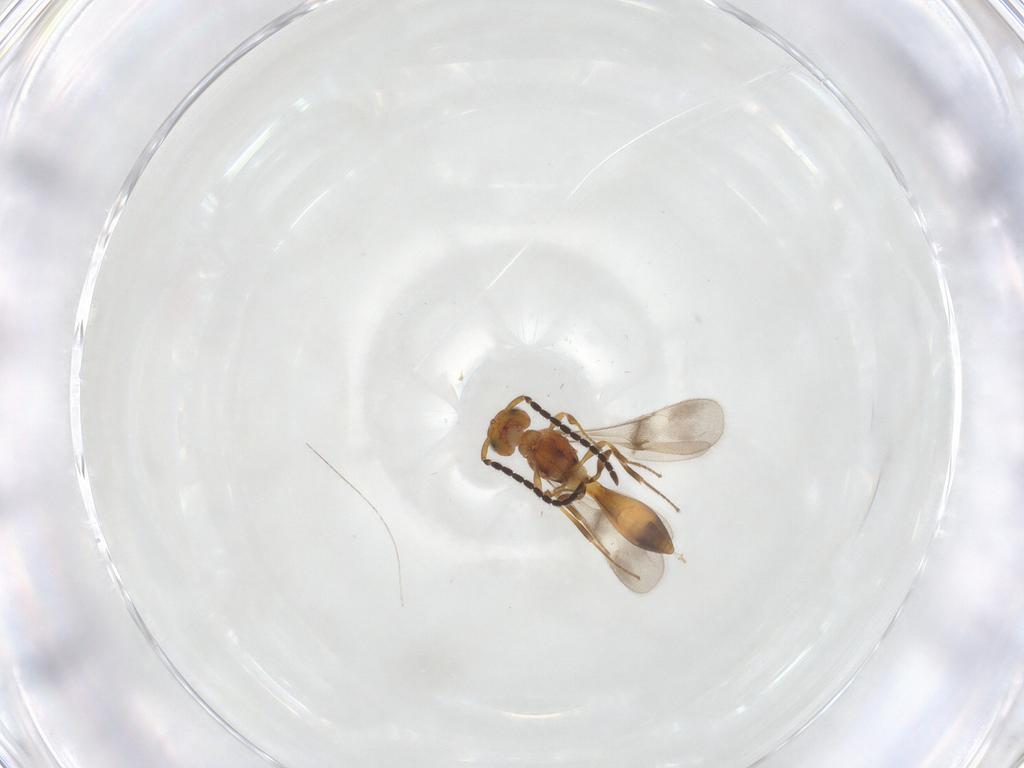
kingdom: Animalia
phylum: Arthropoda
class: Insecta
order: Hymenoptera
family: Scelionidae
